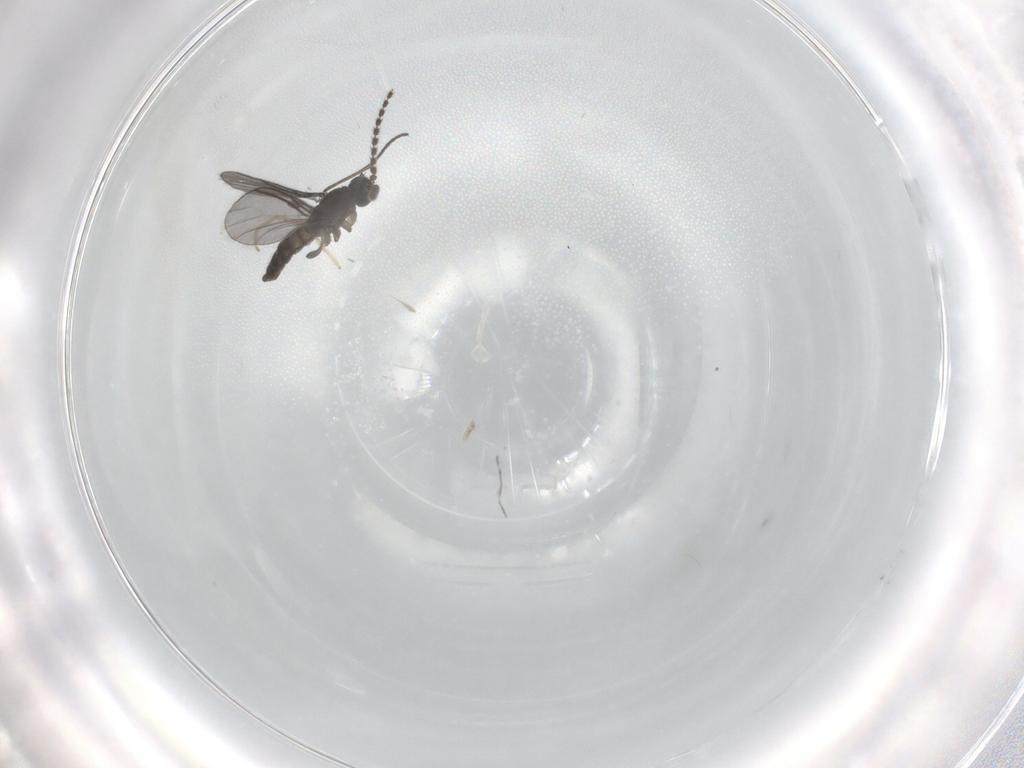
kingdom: Animalia
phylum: Arthropoda
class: Insecta
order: Diptera
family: Chironomidae
